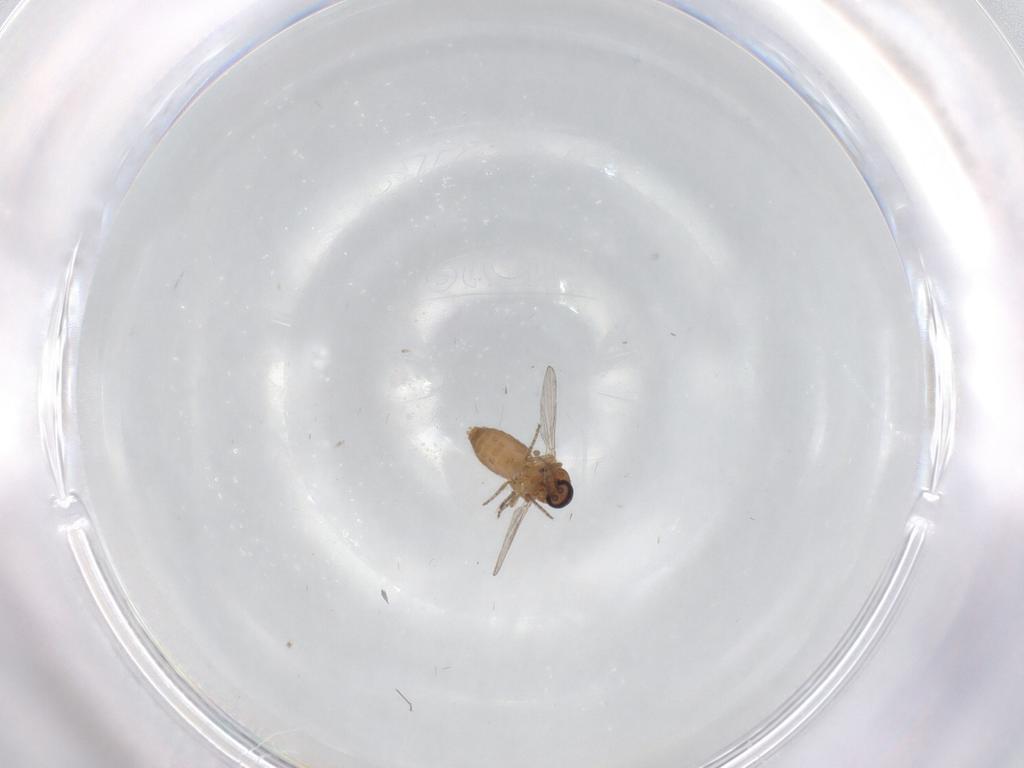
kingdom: Animalia
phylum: Arthropoda
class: Insecta
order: Diptera
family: Ceratopogonidae
